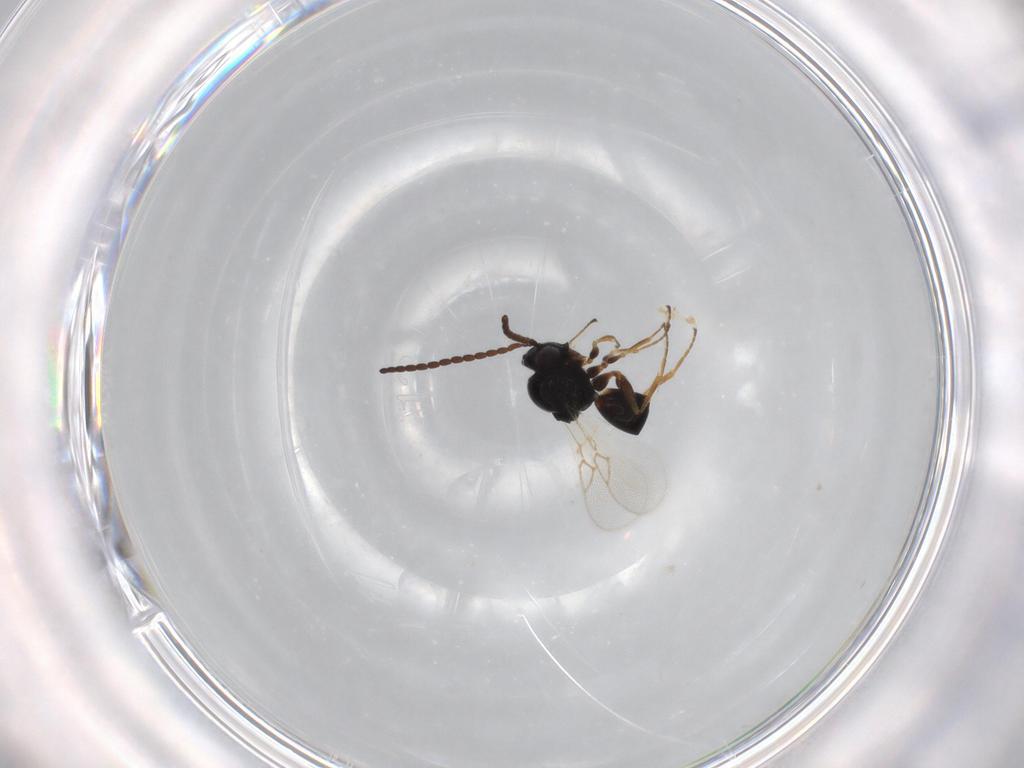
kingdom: Animalia
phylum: Arthropoda
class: Insecta
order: Hymenoptera
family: Figitidae
